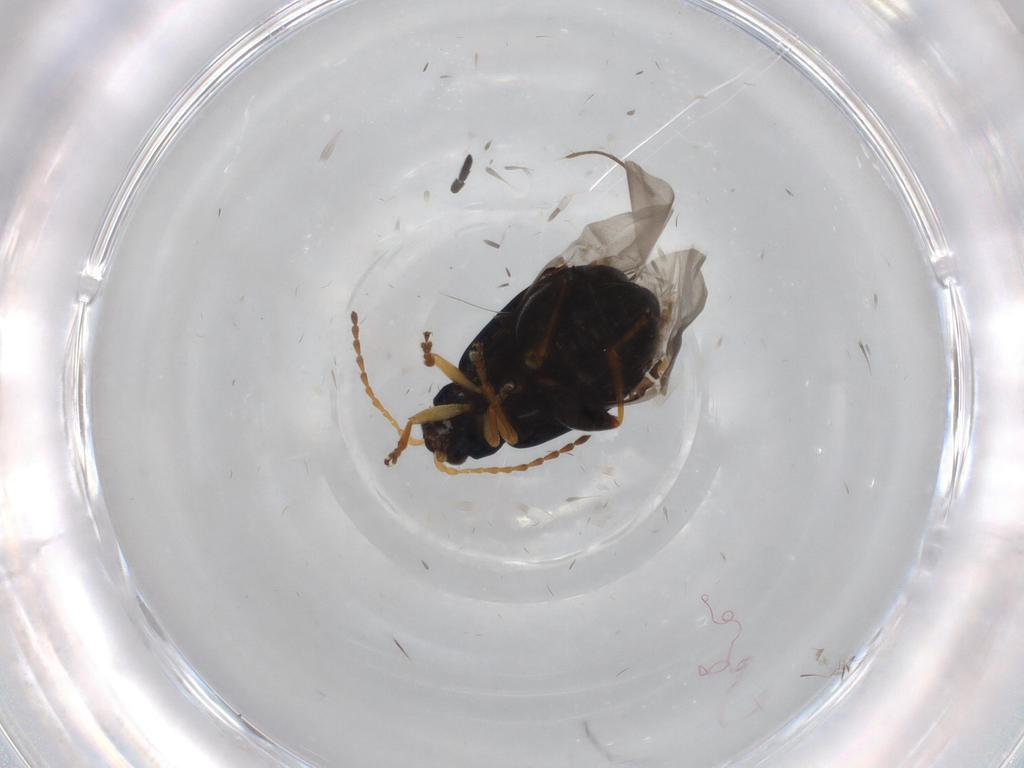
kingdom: Animalia
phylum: Arthropoda
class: Insecta
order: Coleoptera
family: Chrysomelidae
